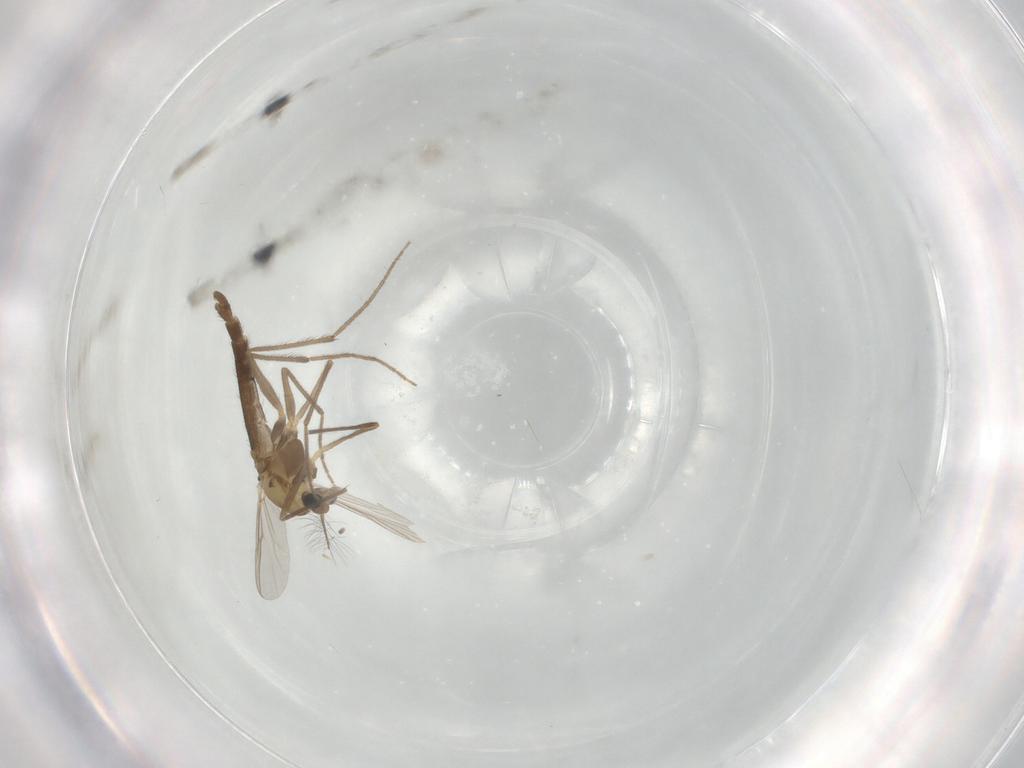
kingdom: Animalia
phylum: Arthropoda
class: Insecta
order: Diptera
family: Chironomidae
